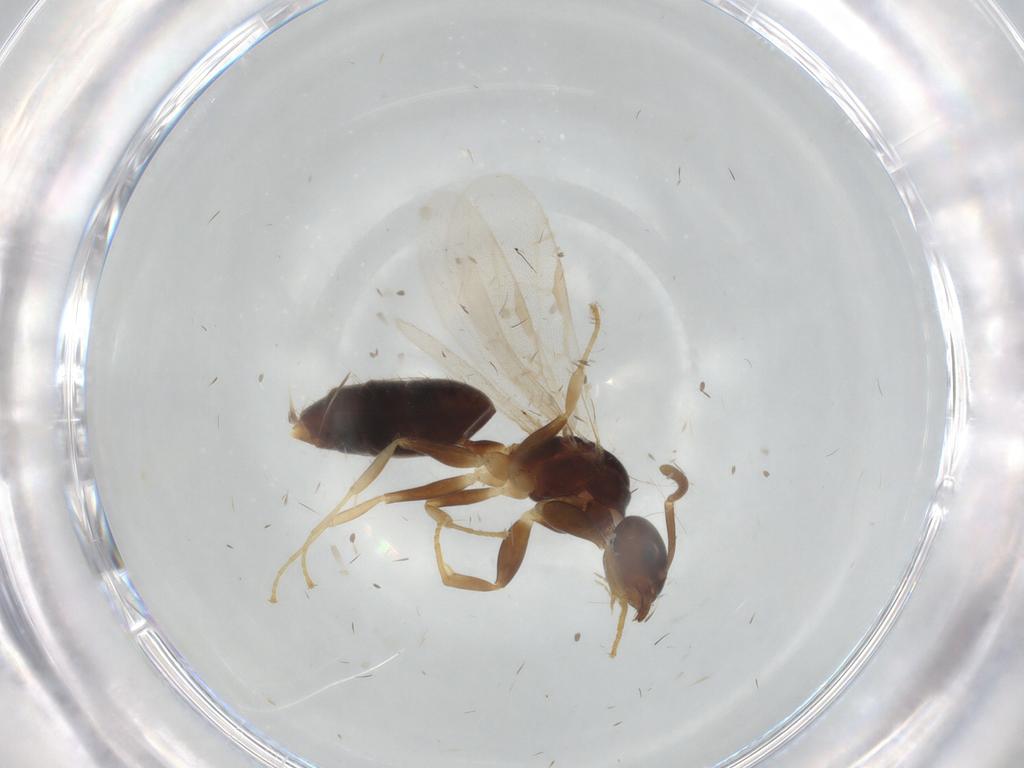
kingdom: Animalia
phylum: Arthropoda
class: Insecta
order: Hymenoptera
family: Formicidae
